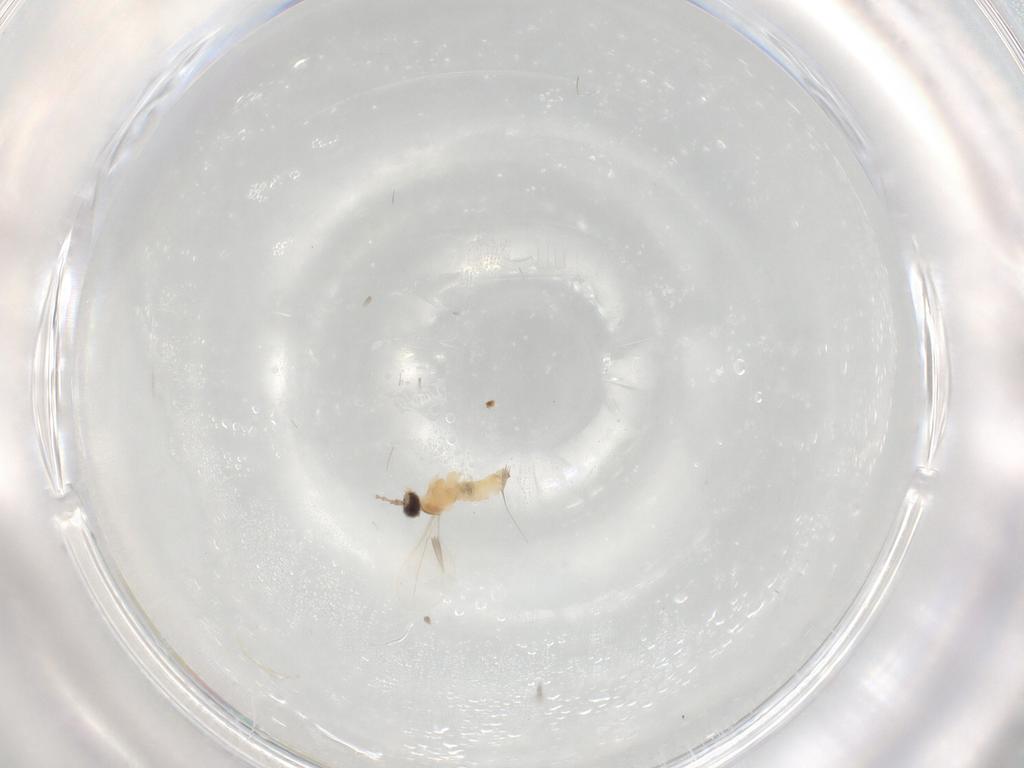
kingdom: Animalia
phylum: Arthropoda
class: Insecta
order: Diptera
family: Cecidomyiidae
